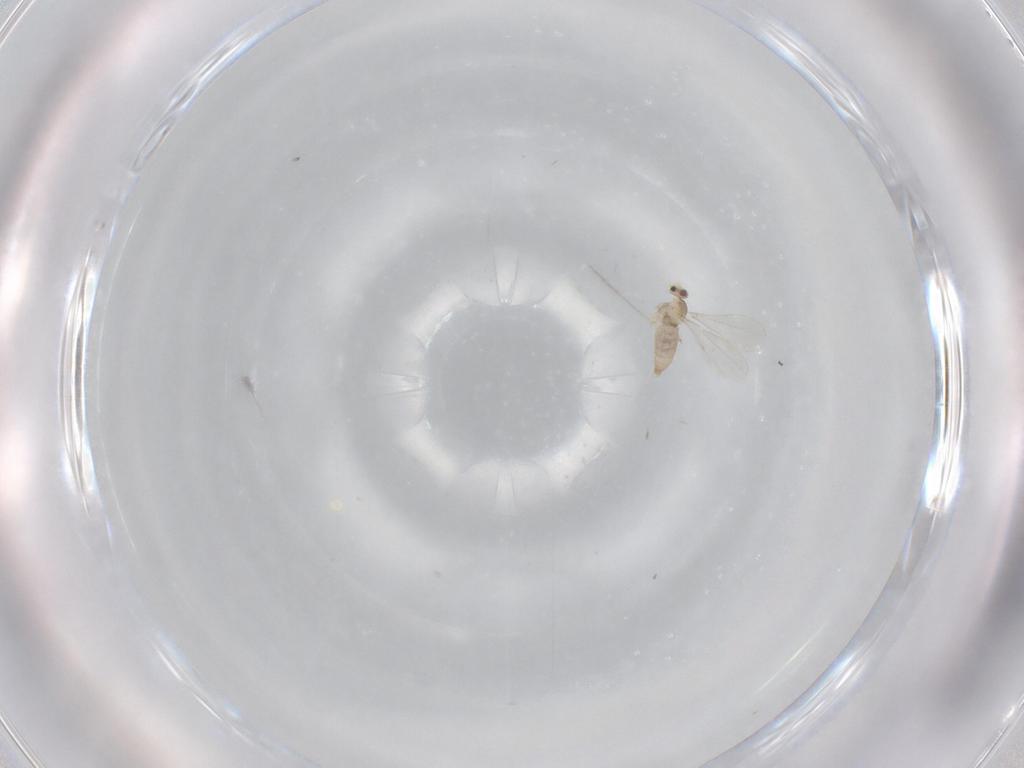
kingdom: Animalia
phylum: Arthropoda
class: Insecta
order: Diptera
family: Cecidomyiidae
